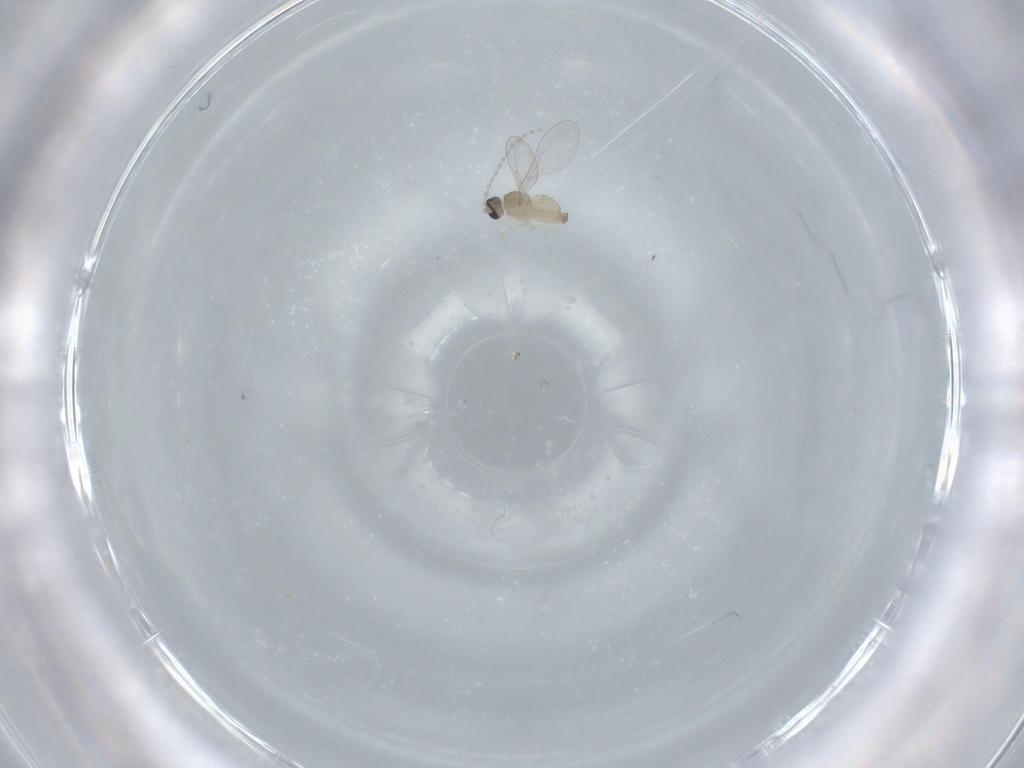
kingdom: Animalia
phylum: Arthropoda
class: Insecta
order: Diptera
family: Cecidomyiidae
